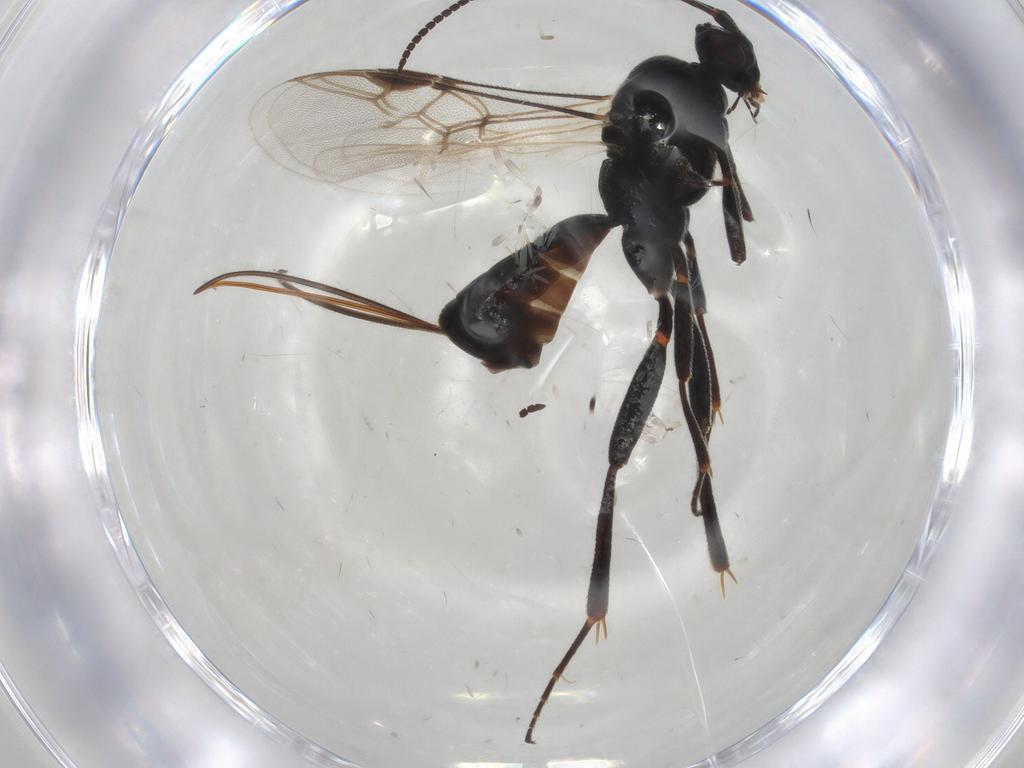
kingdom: Animalia
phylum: Arthropoda
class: Insecta
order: Hymenoptera
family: Braconidae
